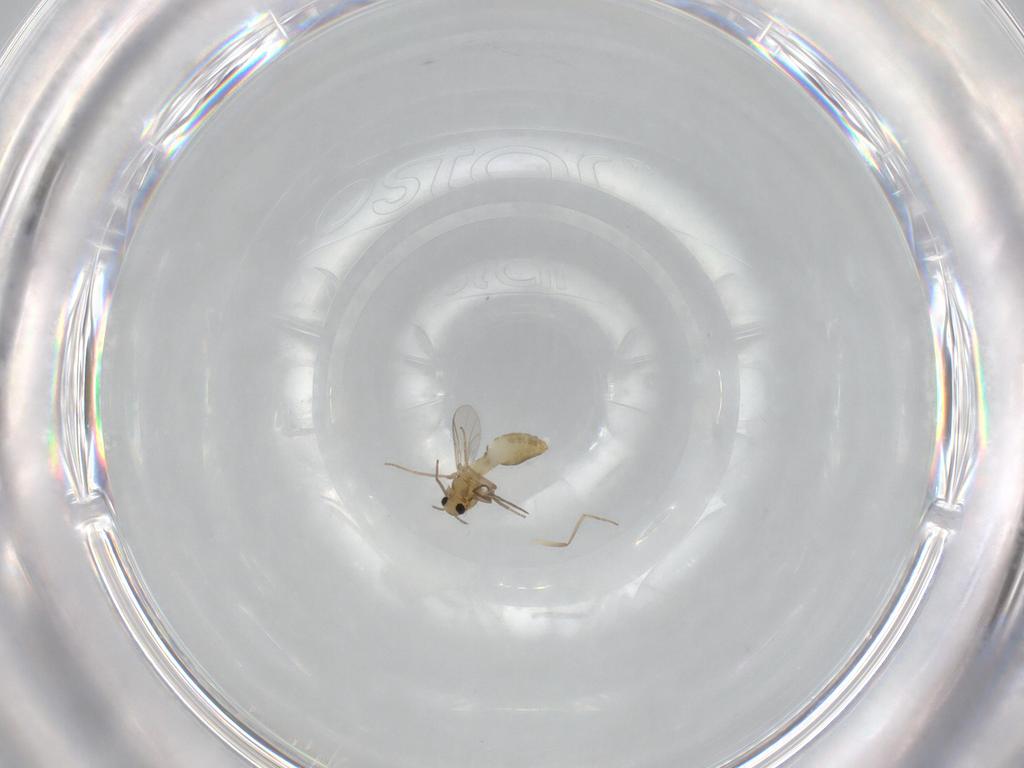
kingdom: Animalia
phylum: Arthropoda
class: Insecta
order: Diptera
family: Chironomidae
